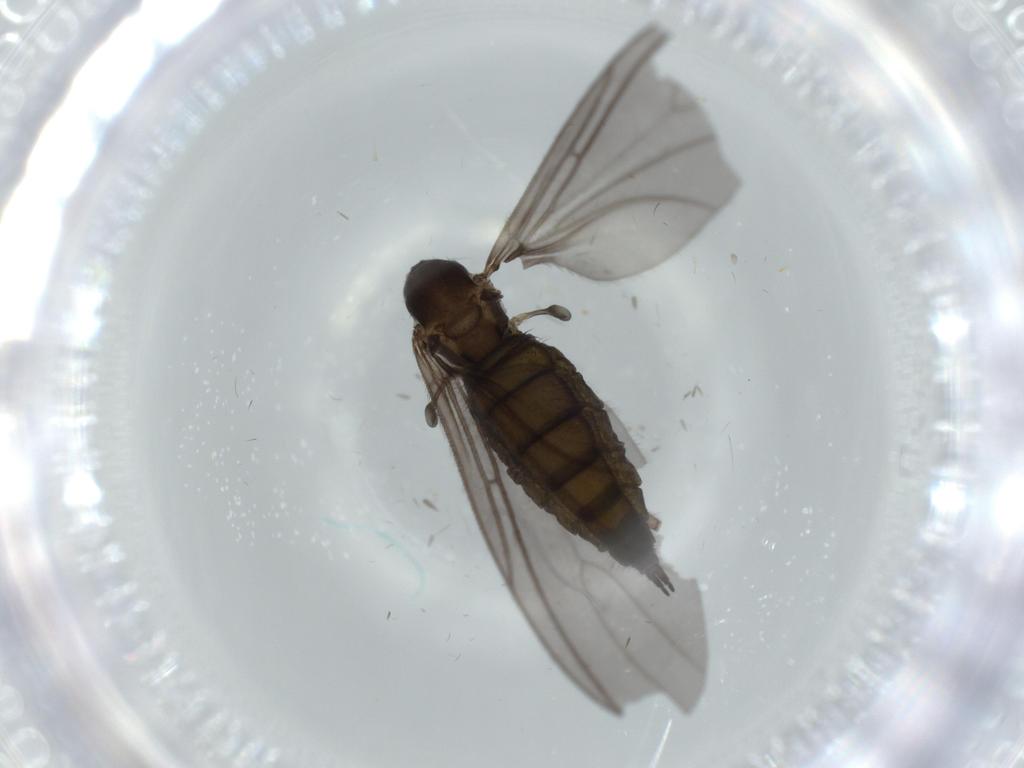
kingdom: Animalia
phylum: Arthropoda
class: Insecta
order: Diptera
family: Sciaridae
